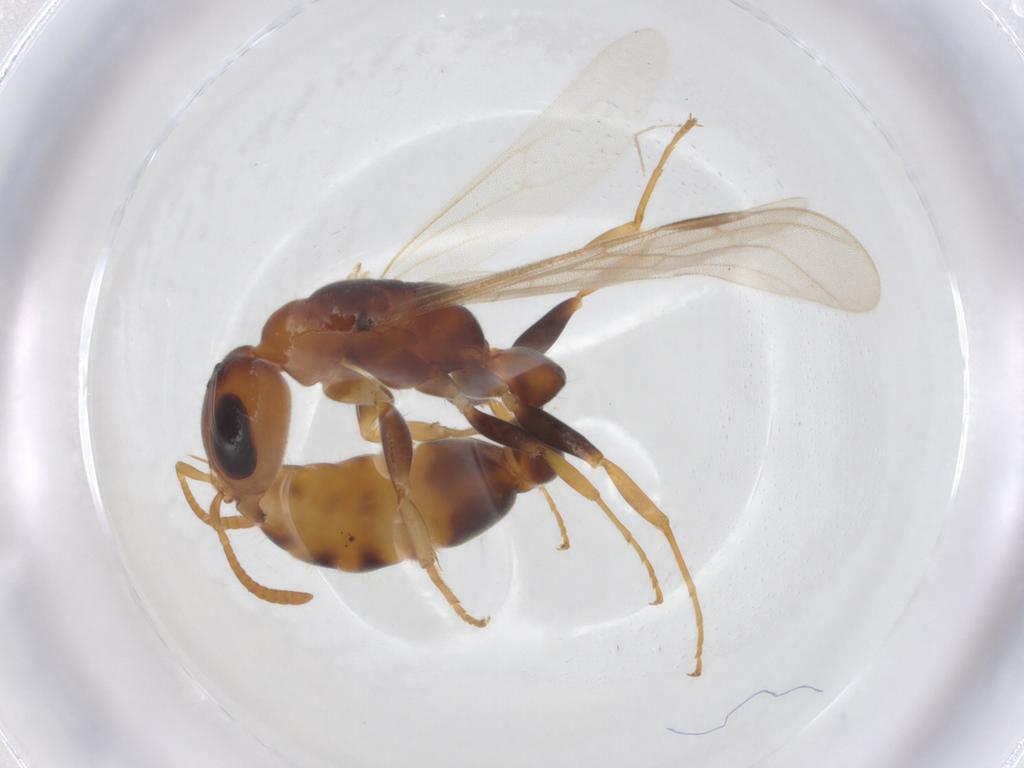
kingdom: Animalia
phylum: Arthropoda
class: Insecta
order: Hymenoptera
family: Formicidae
